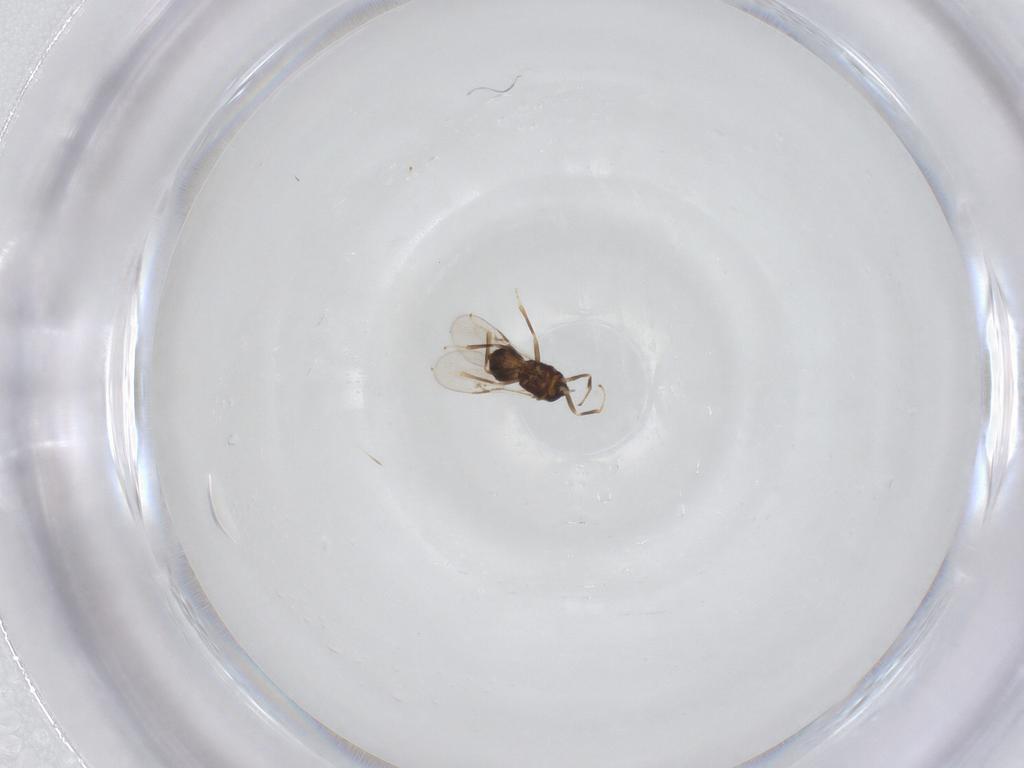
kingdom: Animalia
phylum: Arthropoda
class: Insecta
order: Hymenoptera
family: Encyrtidae
